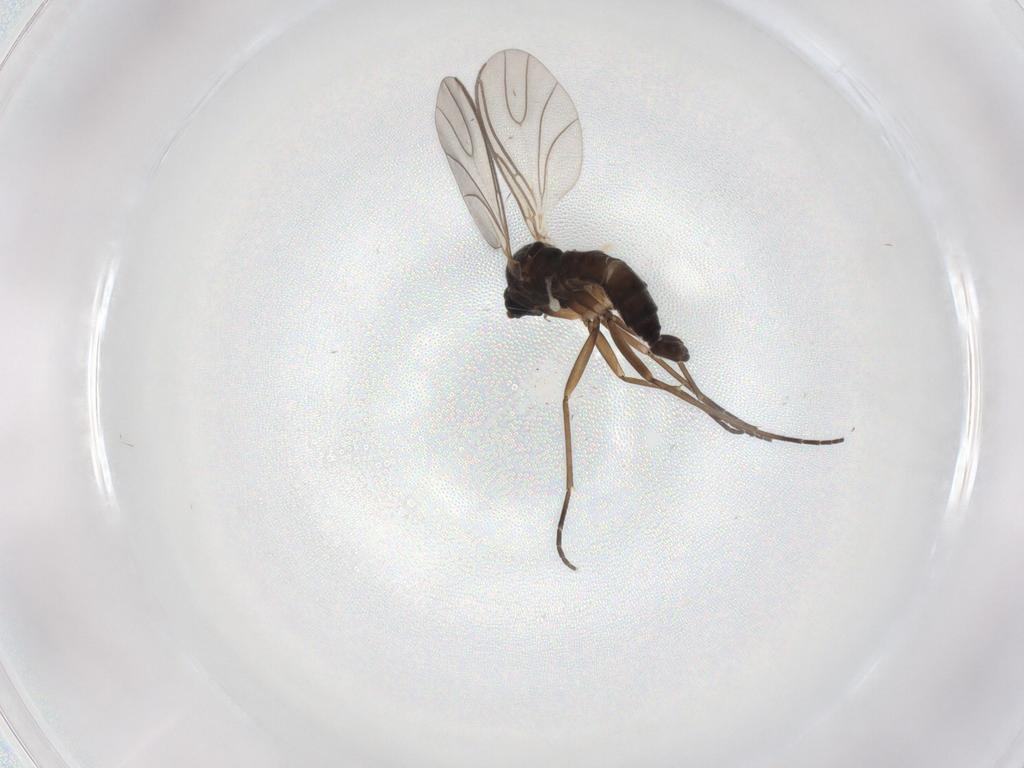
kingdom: Animalia
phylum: Arthropoda
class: Insecta
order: Diptera
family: Sciaridae
